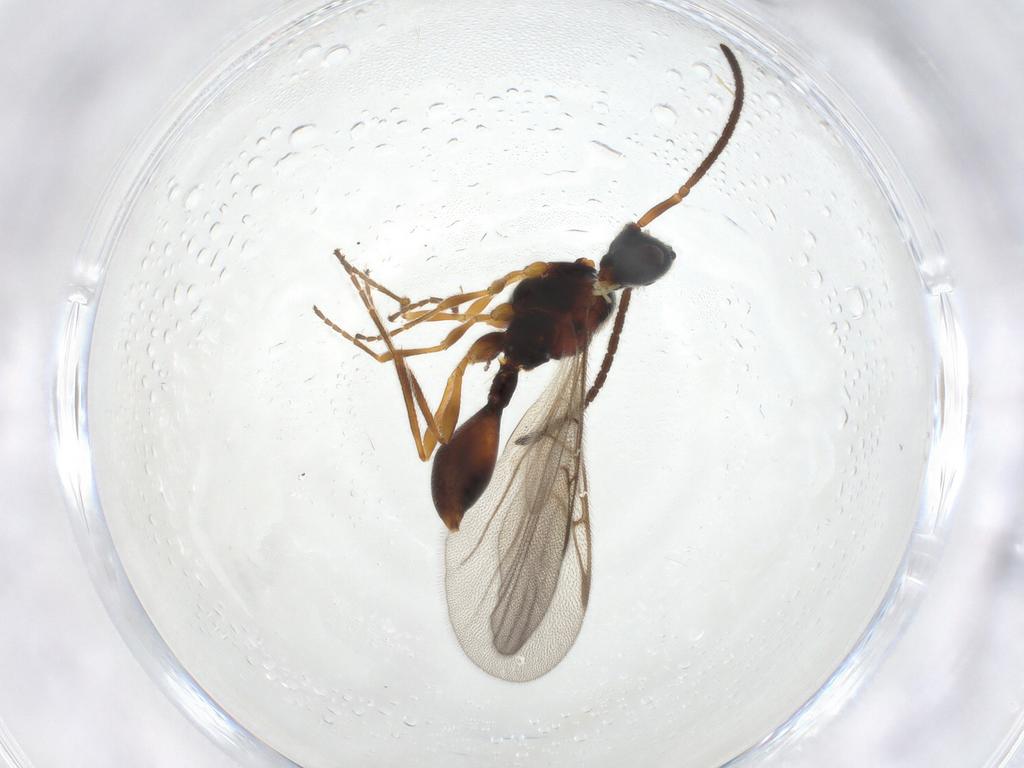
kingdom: Animalia
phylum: Arthropoda
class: Insecta
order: Hymenoptera
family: Diapriidae
